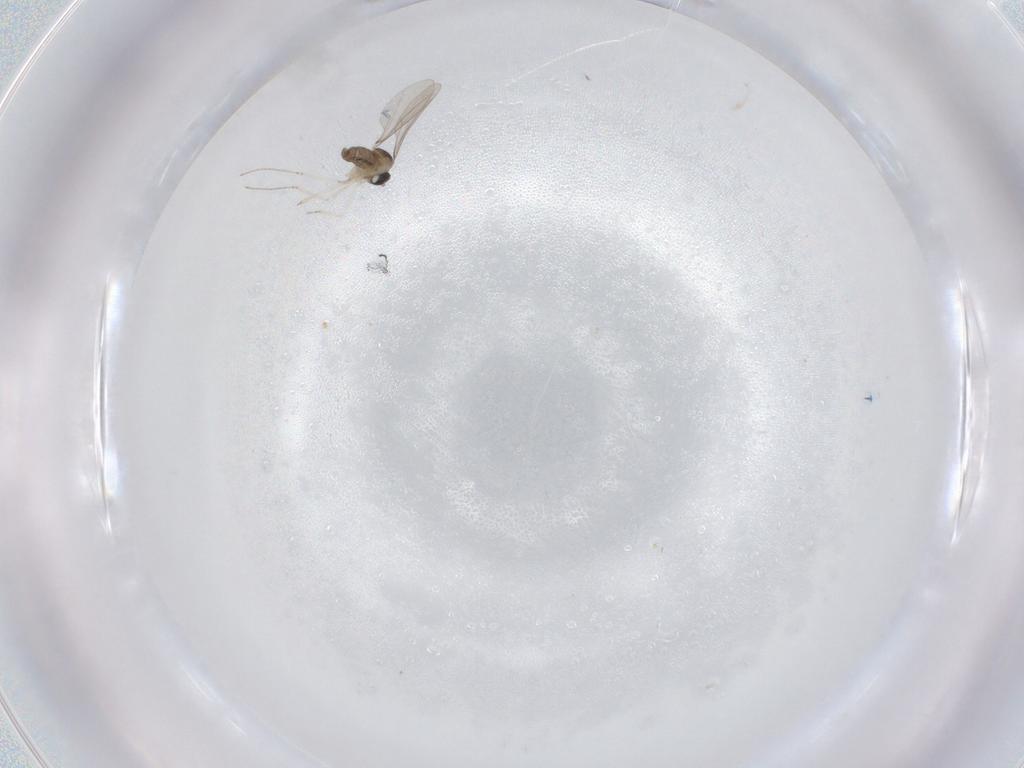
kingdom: Animalia
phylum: Arthropoda
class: Insecta
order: Diptera
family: Cecidomyiidae
